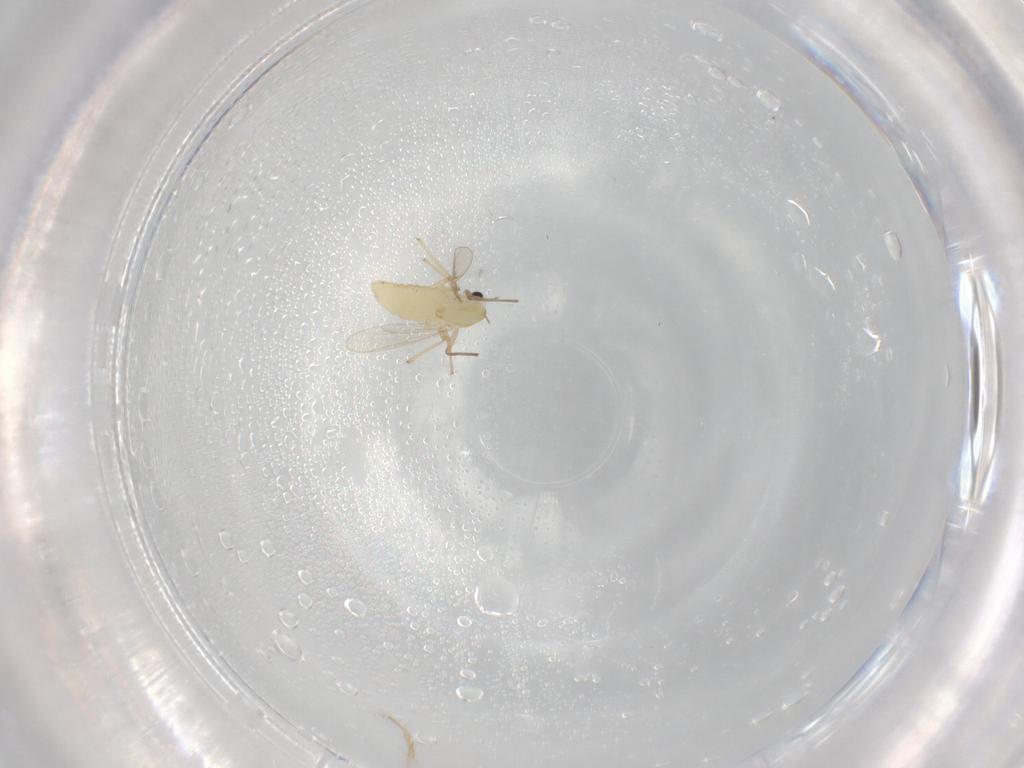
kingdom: Animalia
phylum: Arthropoda
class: Insecta
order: Diptera
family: Chironomidae
